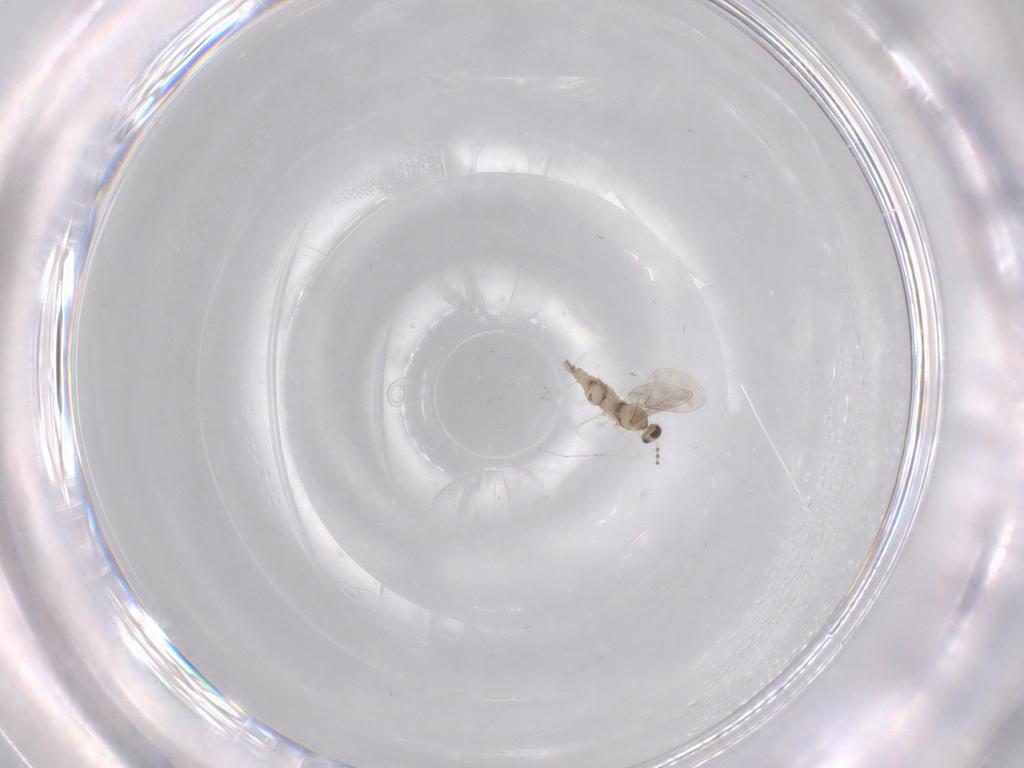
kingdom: Animalia
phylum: Arthropoda
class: Insecta
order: Diptera
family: Cecidomyiidae
